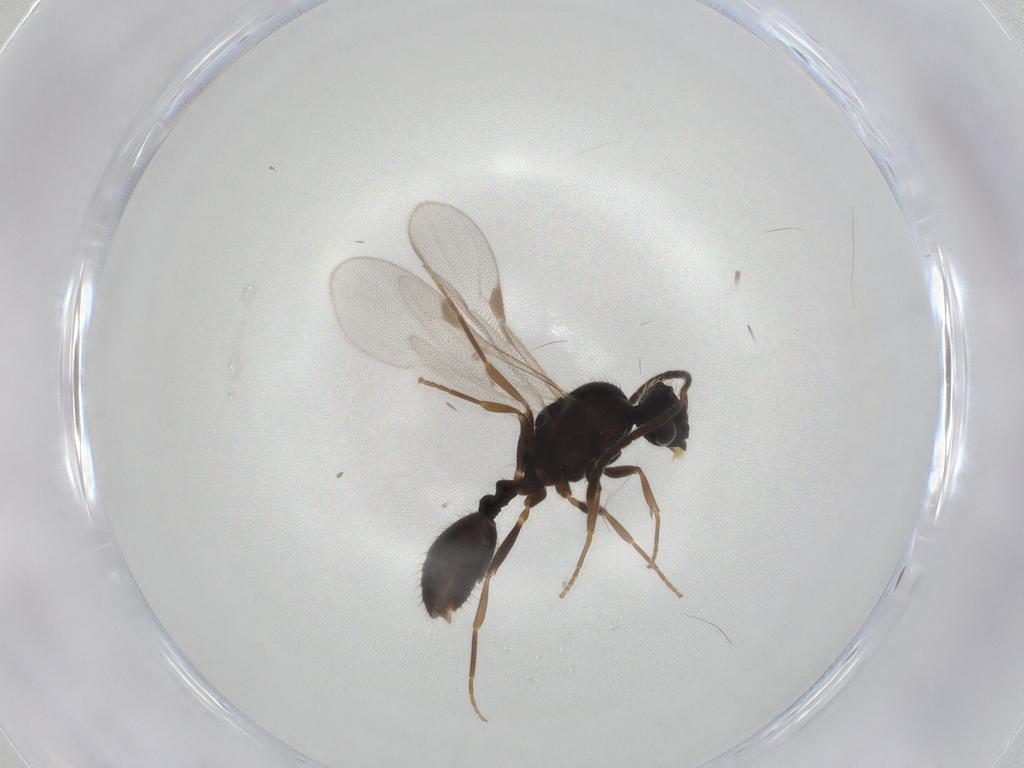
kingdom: Animalia
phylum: Arthropoda
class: Insecta
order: Hymenoptera
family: Formicidae
